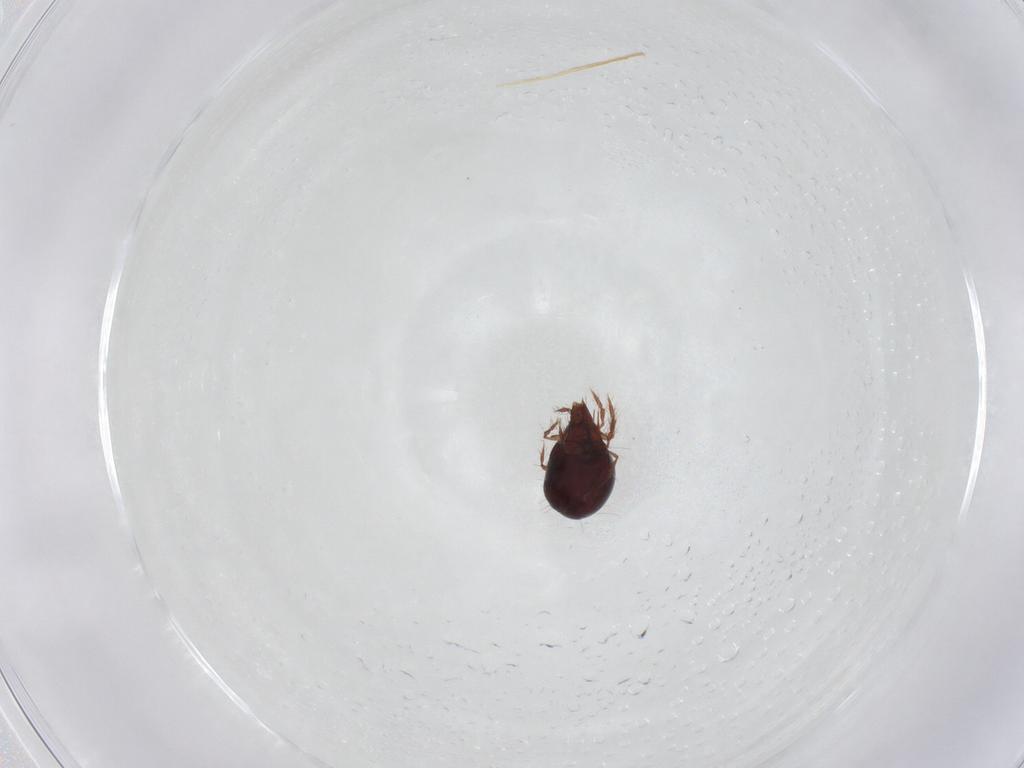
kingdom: Animalia
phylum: Arthropoda
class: Arachnida
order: Sarcoptiformes
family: Ceratoppiidae
